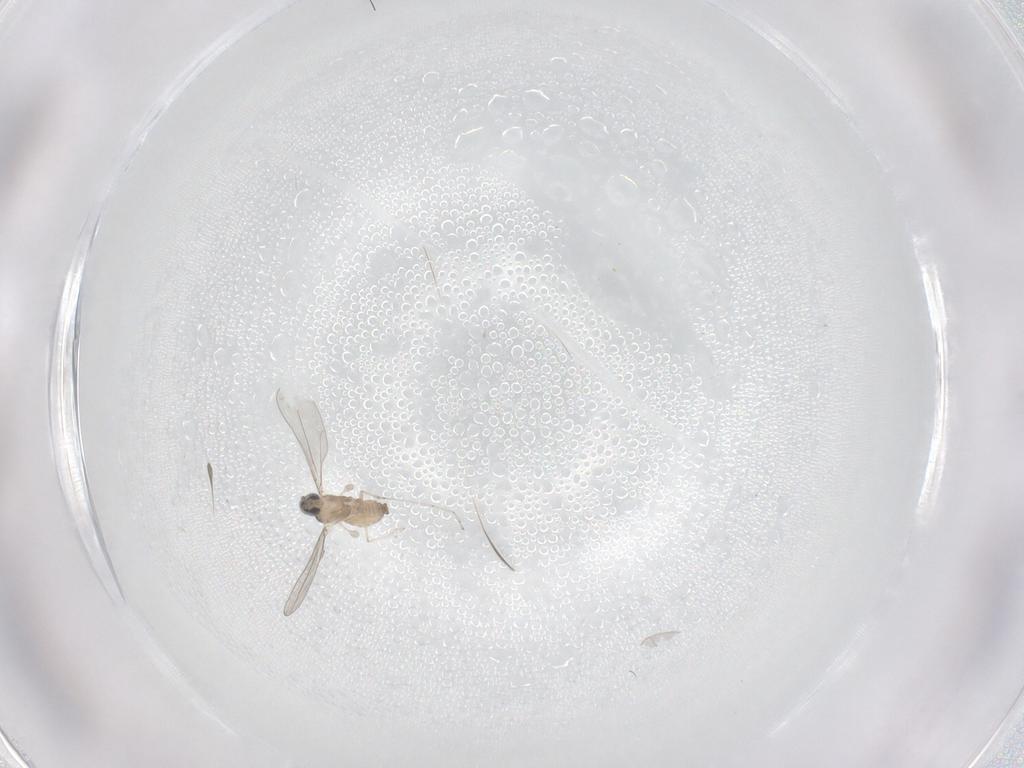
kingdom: Animalia
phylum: Arthropoda
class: Insecta
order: Diptera
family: Cecidomyiidae
